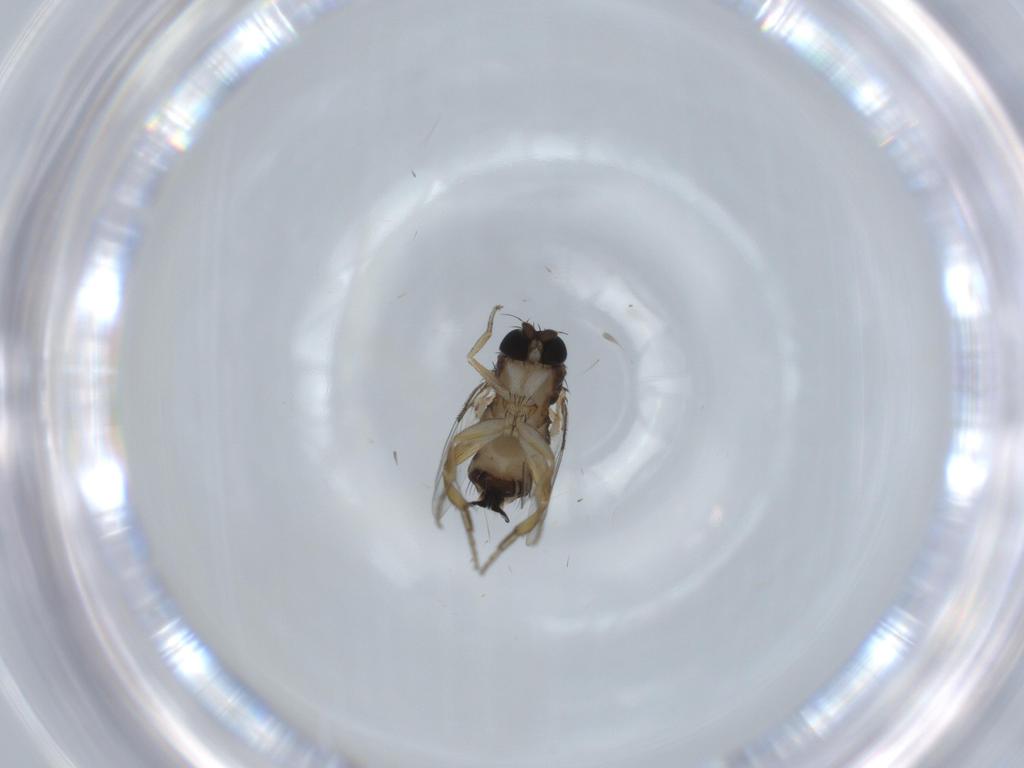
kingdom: Animalia
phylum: Arthropoda
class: Insecta
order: Diptera
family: Phoridae
